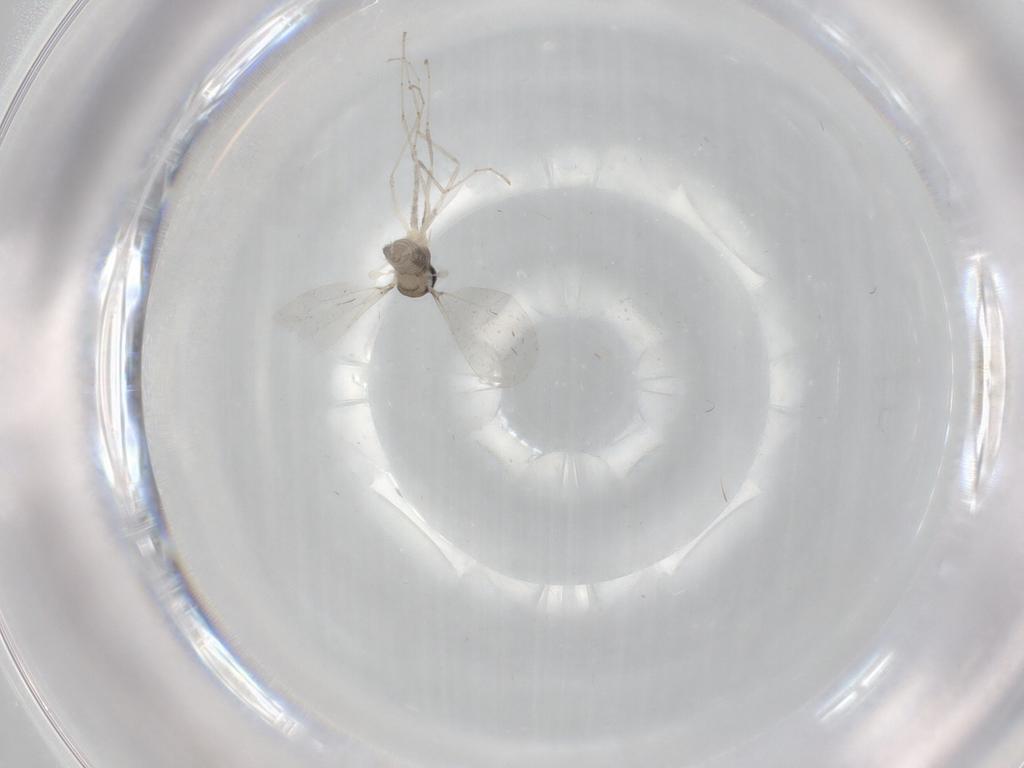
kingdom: Animalia
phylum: Arthropoda
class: Insecta
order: Diptera
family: Cecidomyiidae
